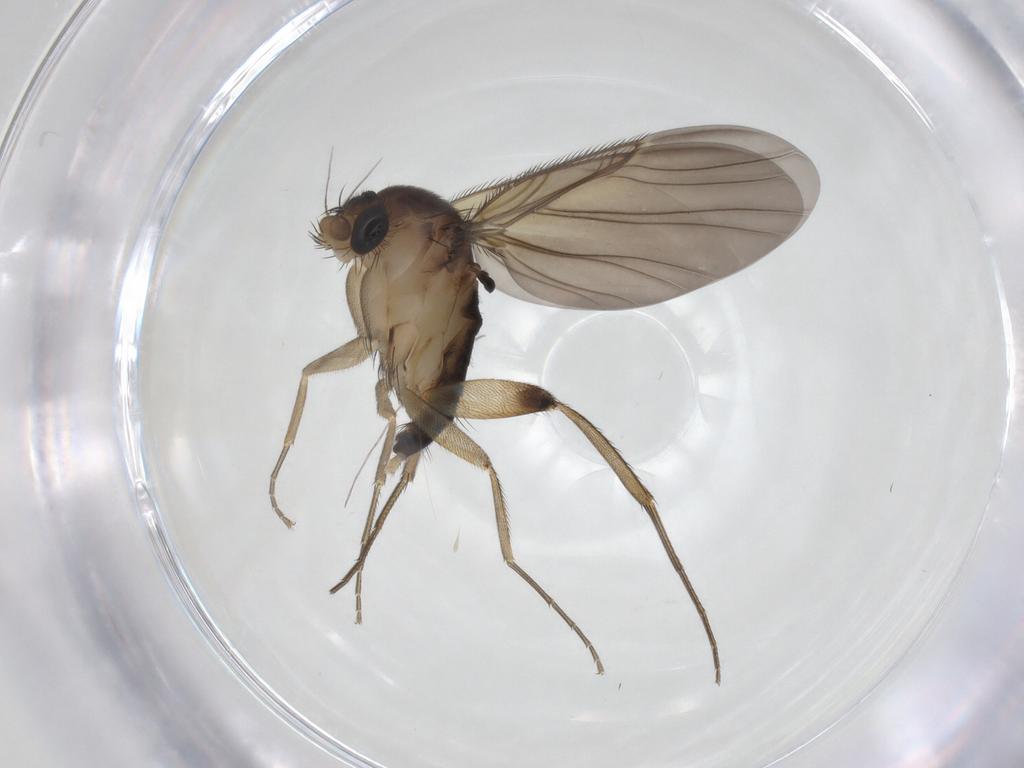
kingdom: Animalia
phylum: Arthropoda
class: Insecta
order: Diptera
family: Phoridae
